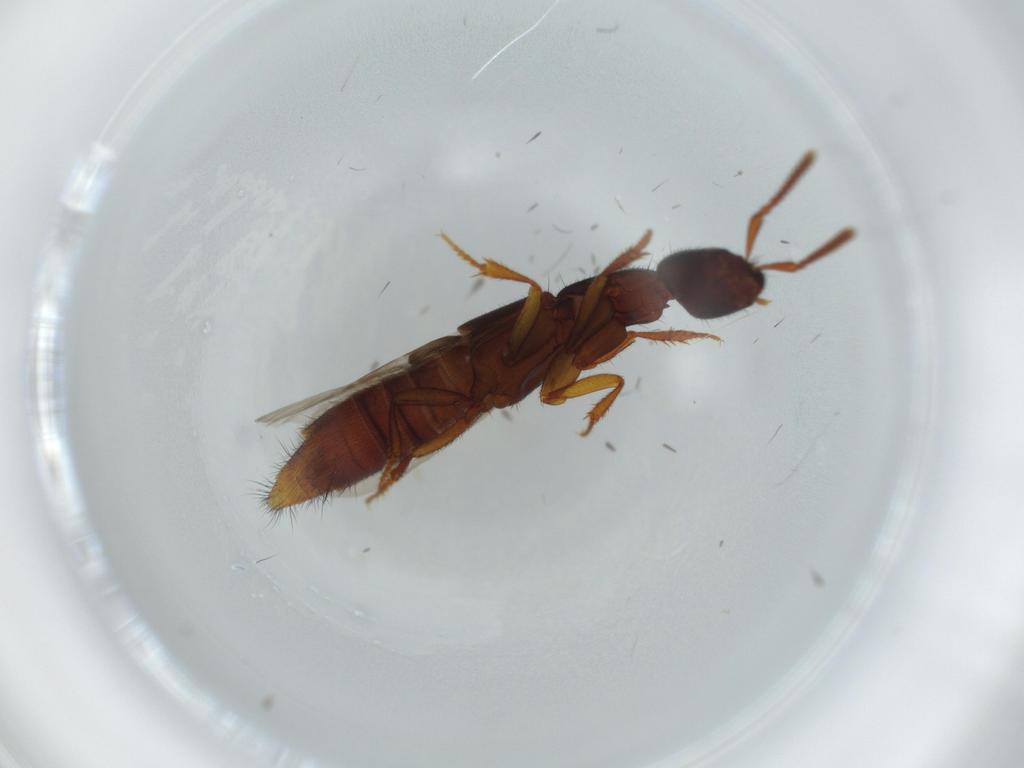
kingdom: Animalia
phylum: Arthropoda
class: Insecta
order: Coleoptera
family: Staphylinidae
